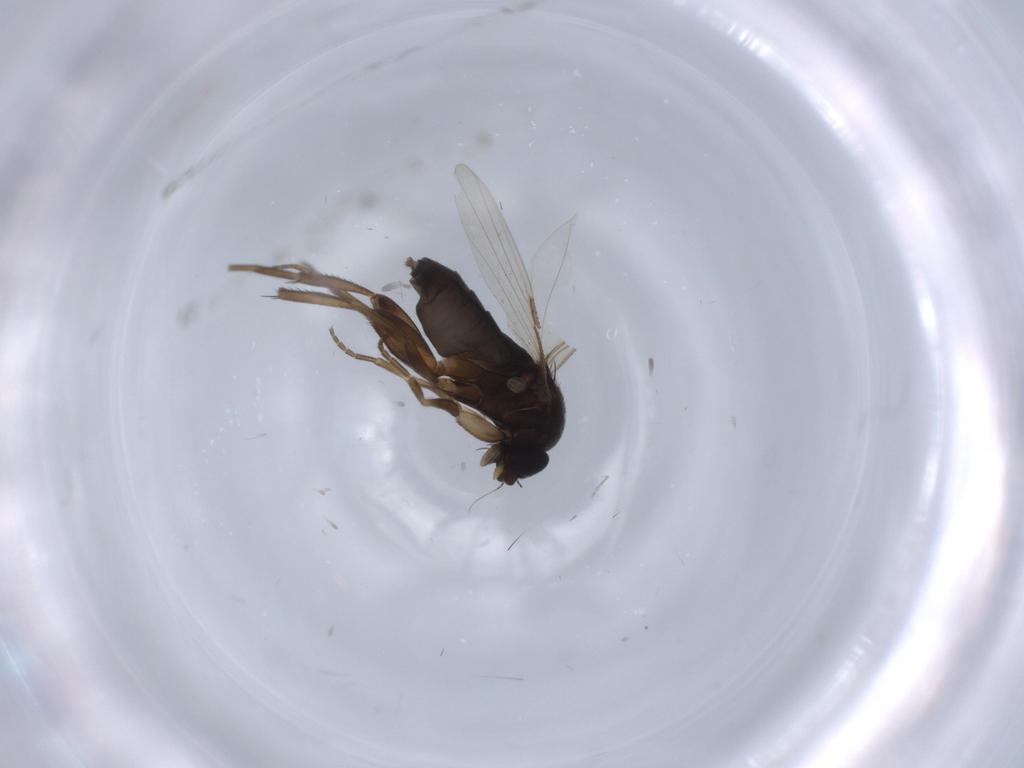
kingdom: Animalia
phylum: Arthropoda
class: Insecta
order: Diptera
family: Phoridae
